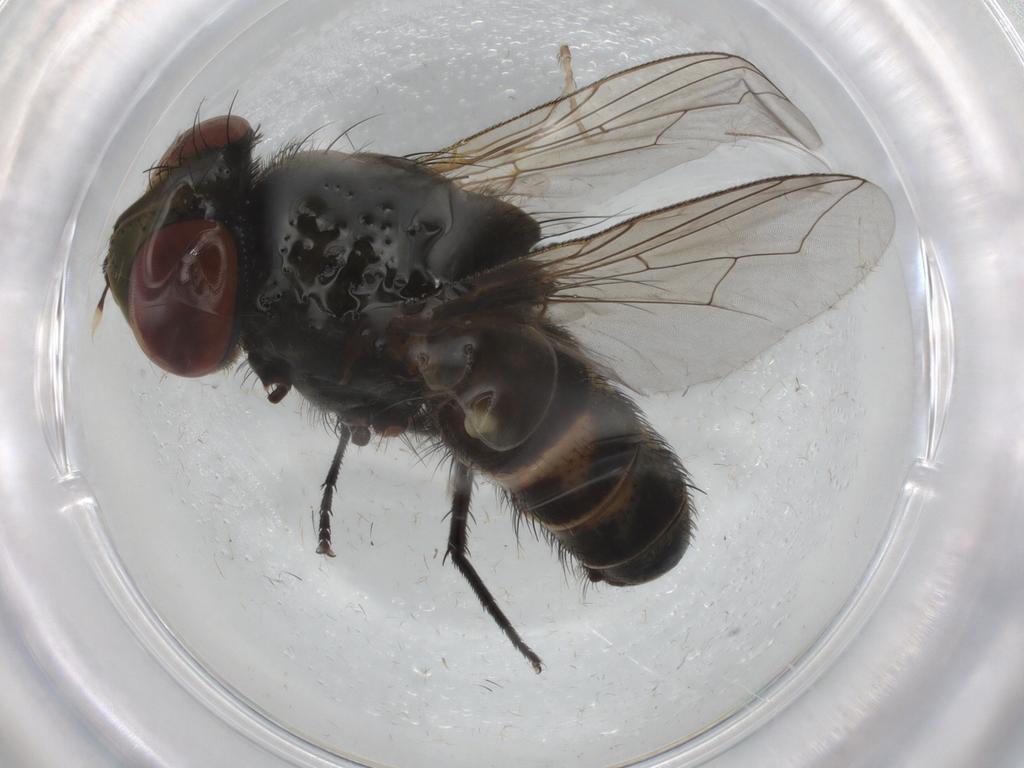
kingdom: Animalia
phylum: Arthropoda
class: Insecta
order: Diptera
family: Sarcophagidae
